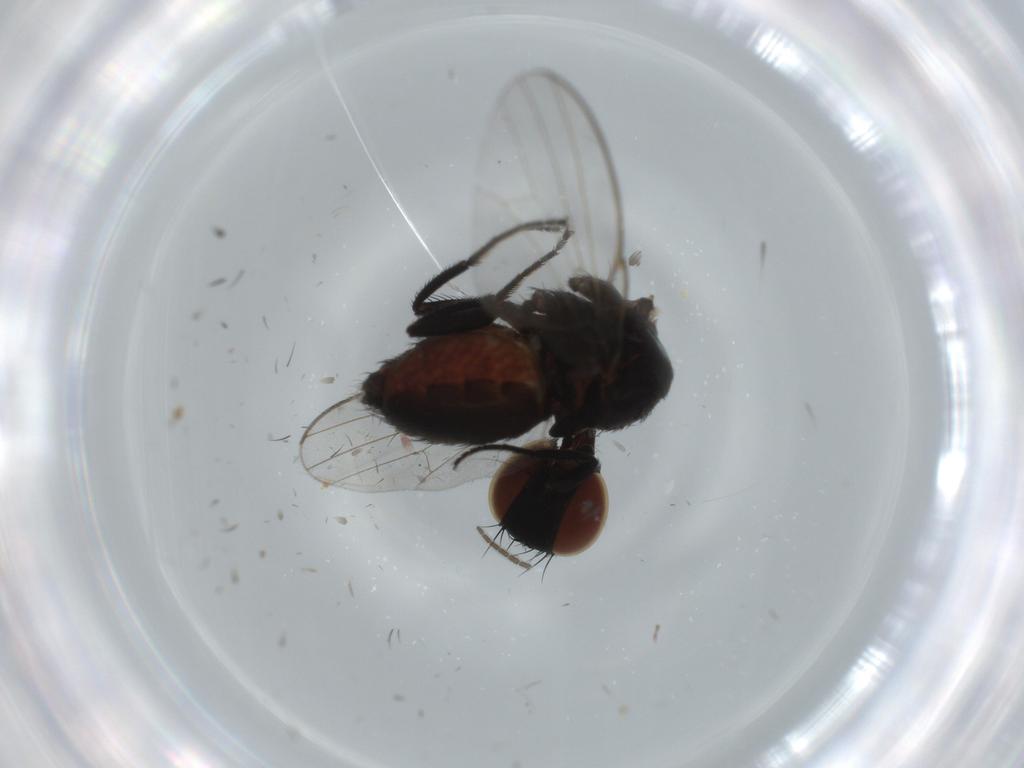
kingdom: Animalia
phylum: Arthropoda
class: Insecta
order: Diptera
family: Milichiidae
